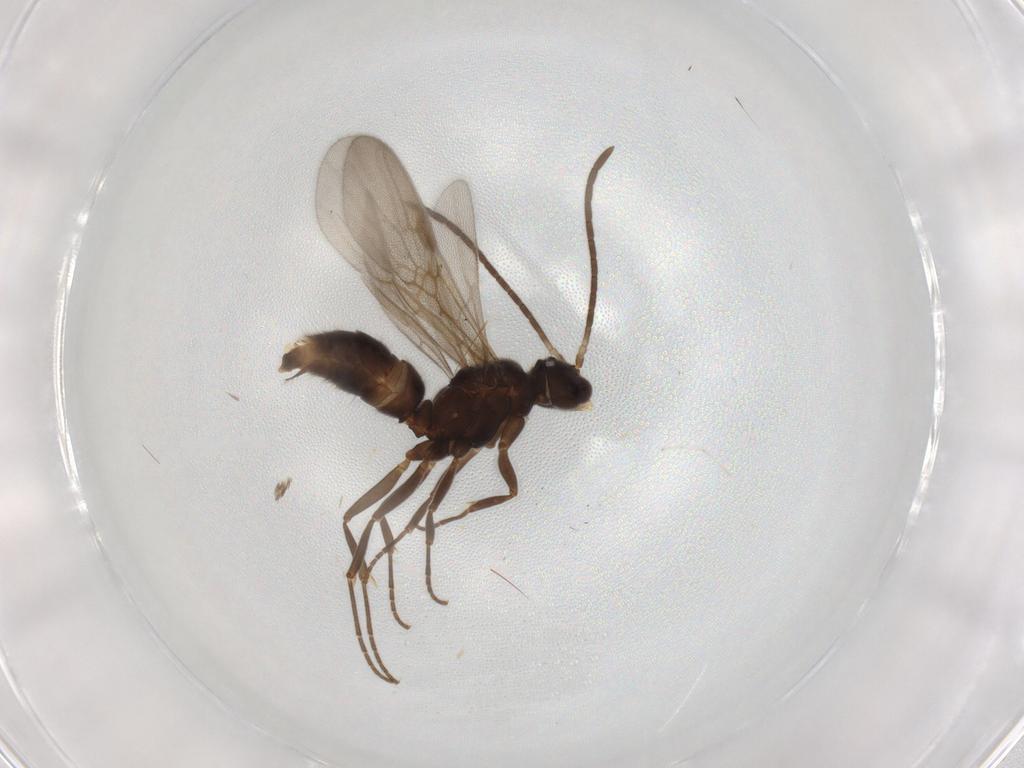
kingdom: Animalia
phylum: Arthropoda
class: Insecta
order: Hymenoptera
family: Formicidae
